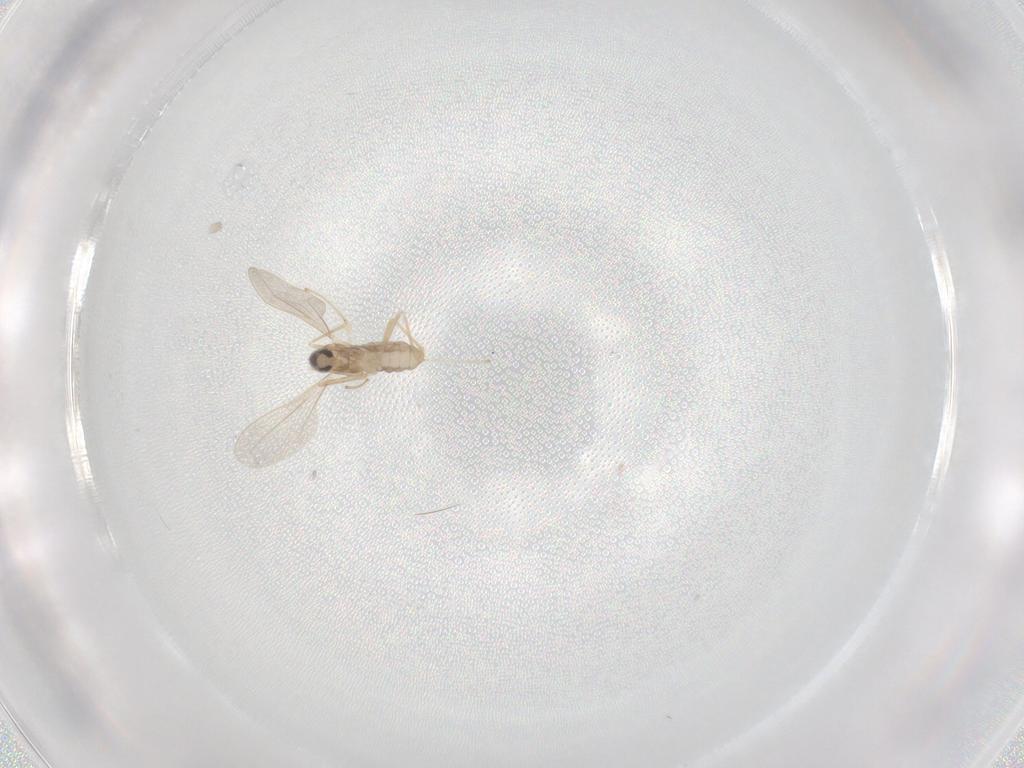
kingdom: Animalia
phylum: Arthropoda
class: Insecta
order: Diptera
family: Cecidomyiidae
